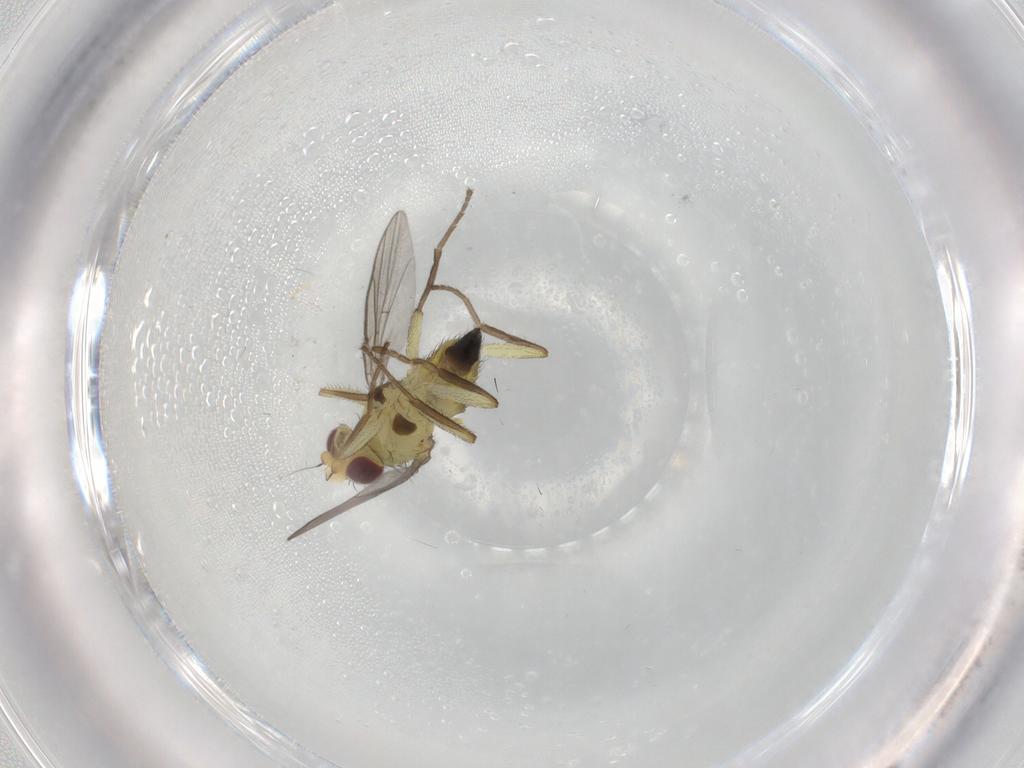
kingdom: Animalia
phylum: Arthropoda
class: Insecta
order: Diptera
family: Agromyzidae
